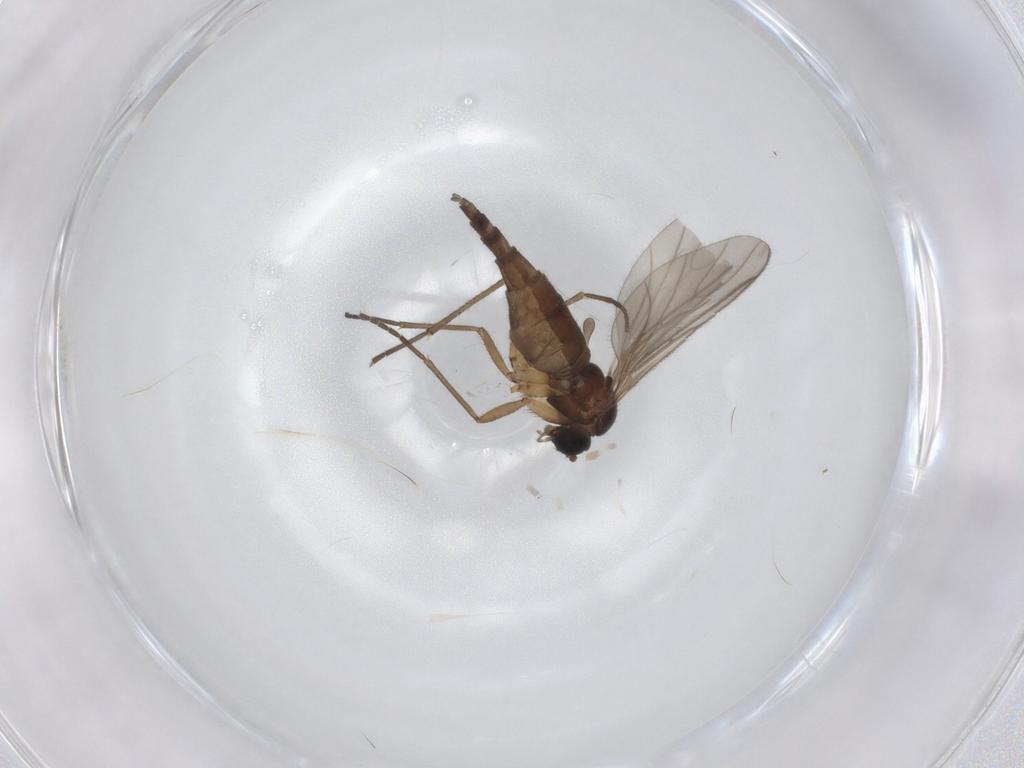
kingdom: Animalia
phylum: Arthropoda
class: Insecta
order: Diptera
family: Sciaridae
